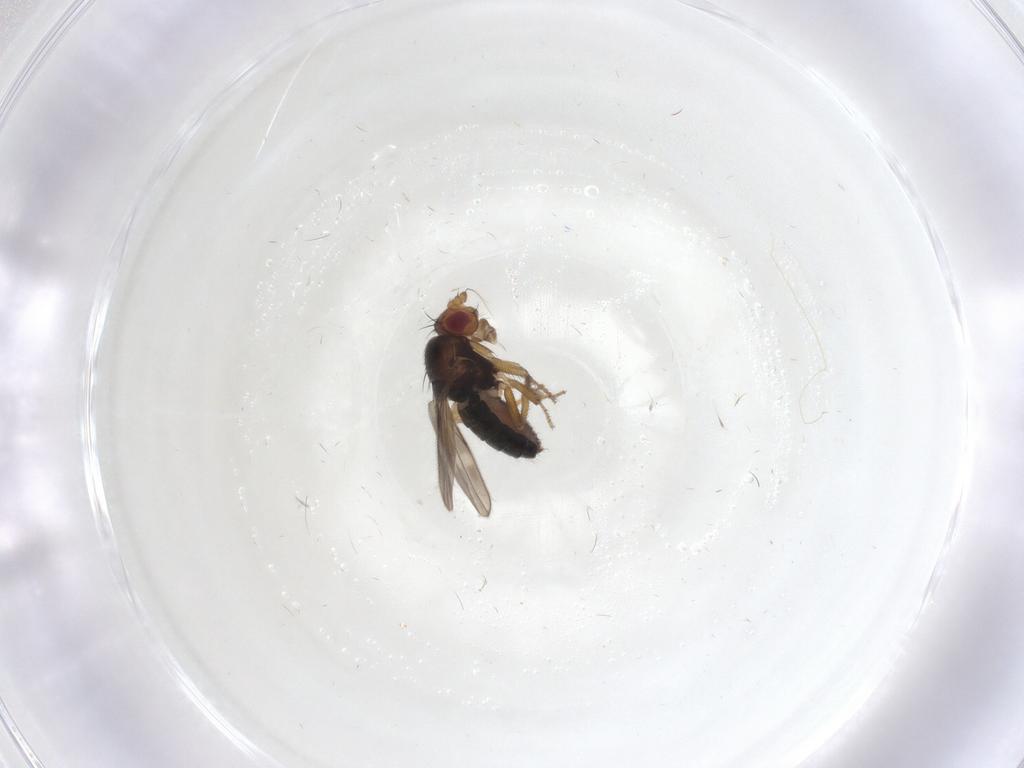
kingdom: Animalia
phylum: Arthropoda
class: Insecta
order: Diptera
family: Sphaeroceridae
